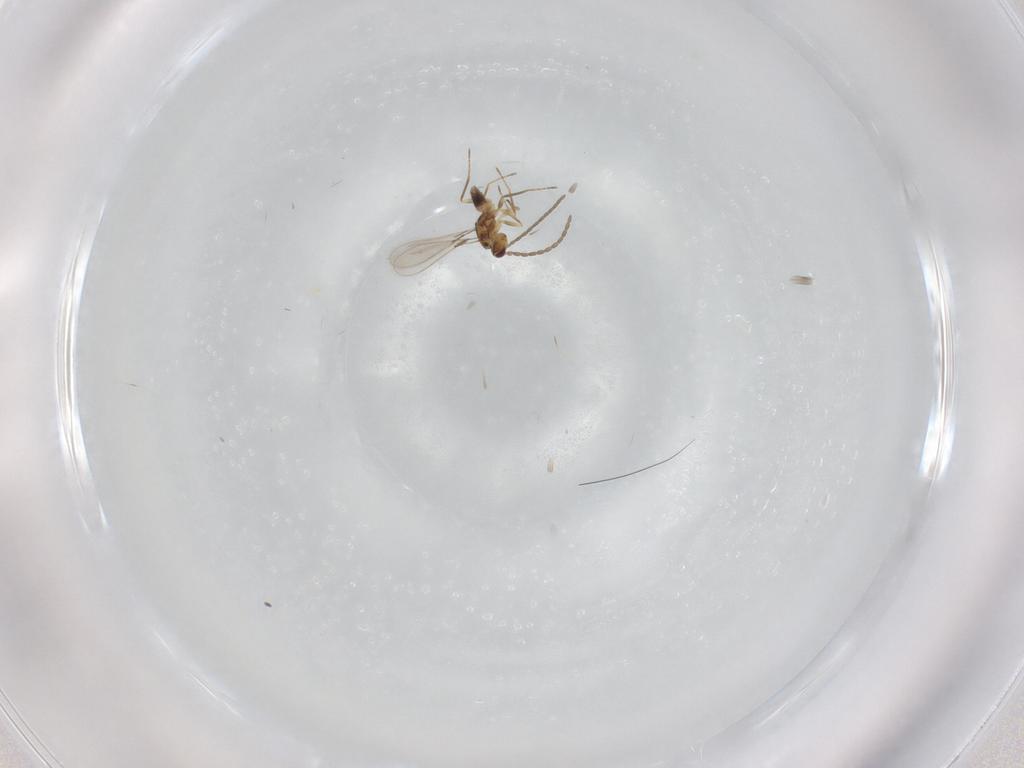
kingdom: Animalia
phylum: Arthropoda
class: Insecta
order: Hymenoptera
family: Mymaridae
